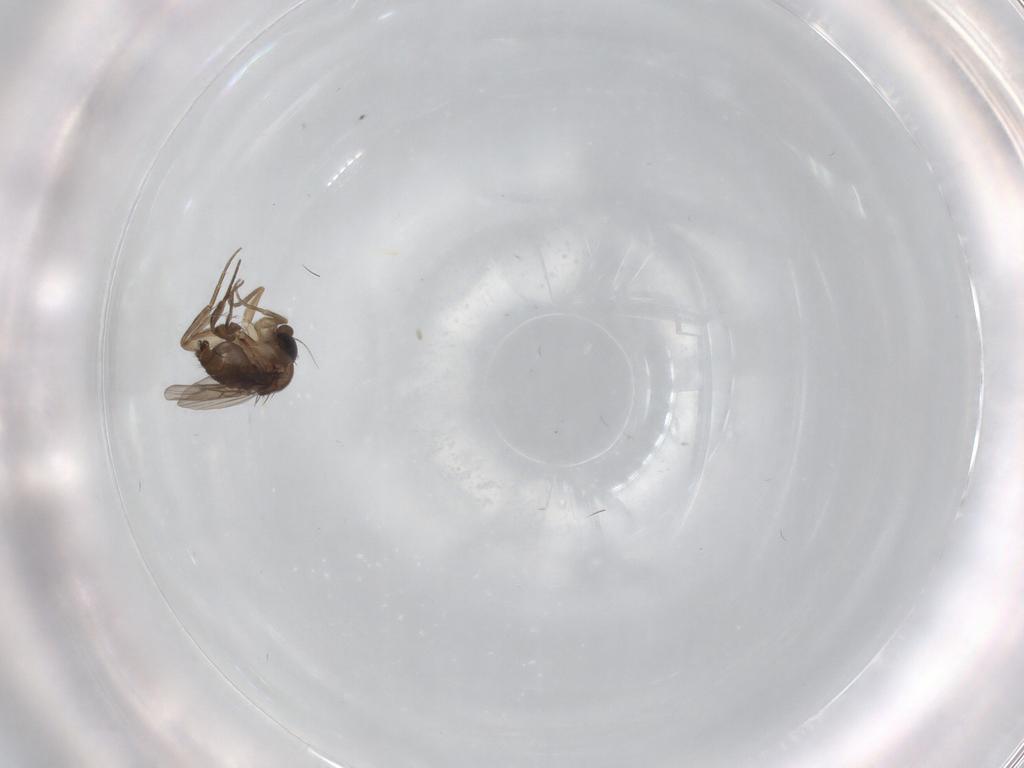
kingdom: Animalia
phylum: Arthropoda
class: Insecta
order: Diptera
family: Phoridae
